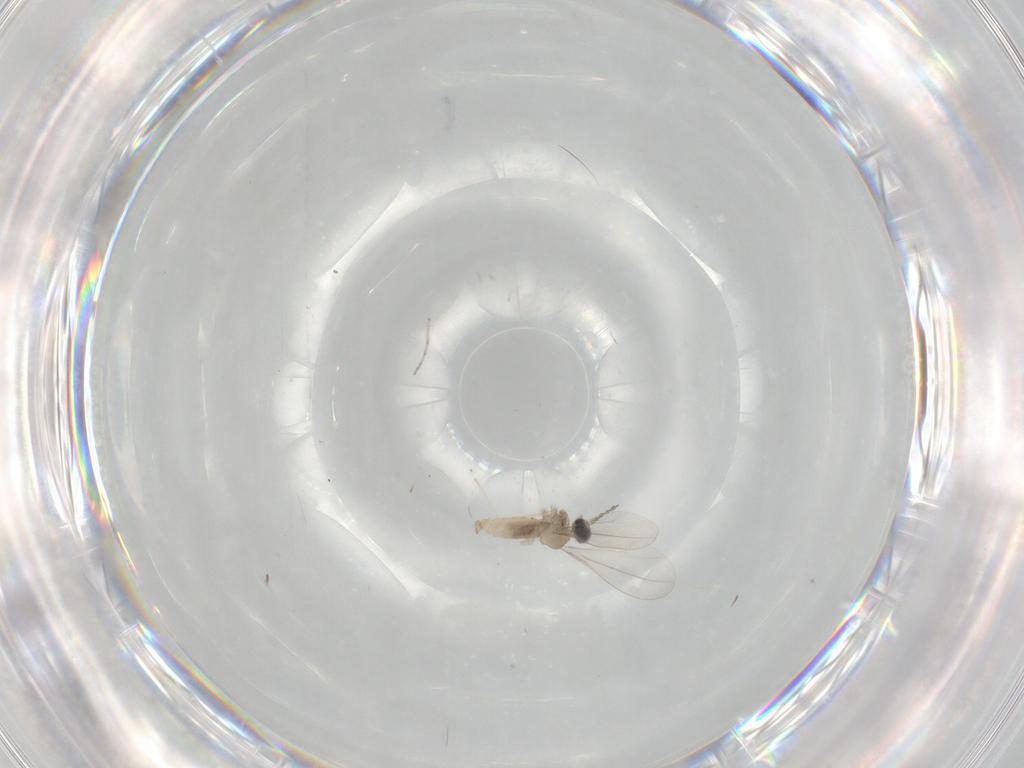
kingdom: Animalia
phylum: Arthropoda
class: Insecta
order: Diptera
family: Cecidomyiidae
